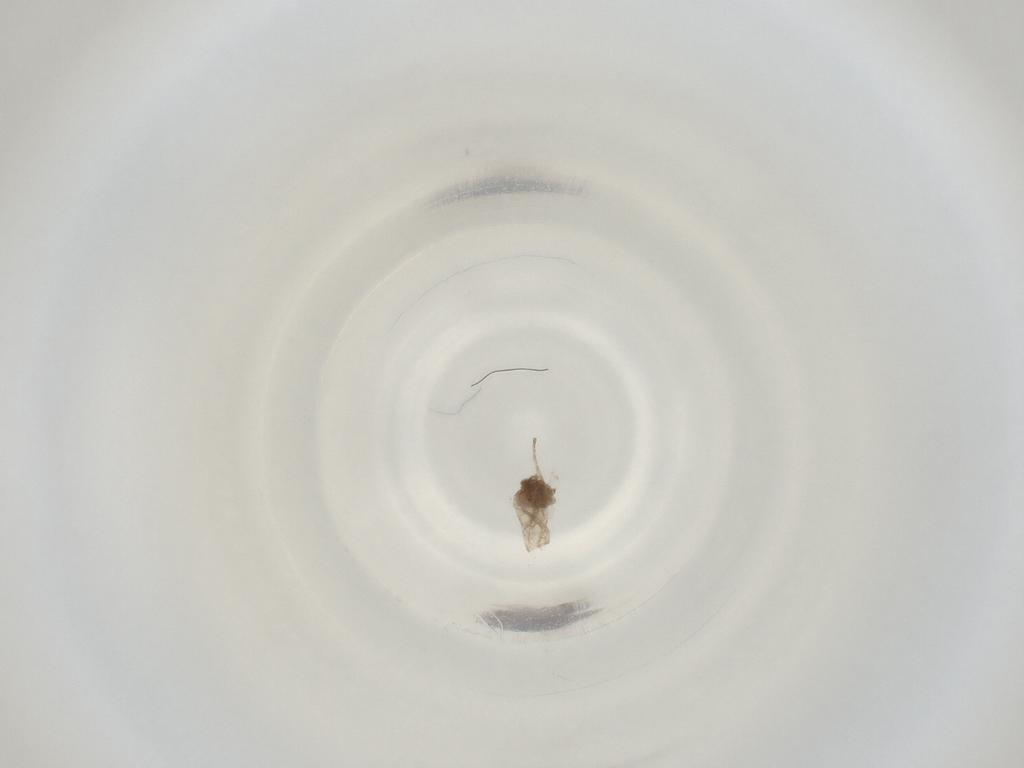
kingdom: Animalia
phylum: Arthropoda
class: Insecta
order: Diptera
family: Cecidomyiidae
